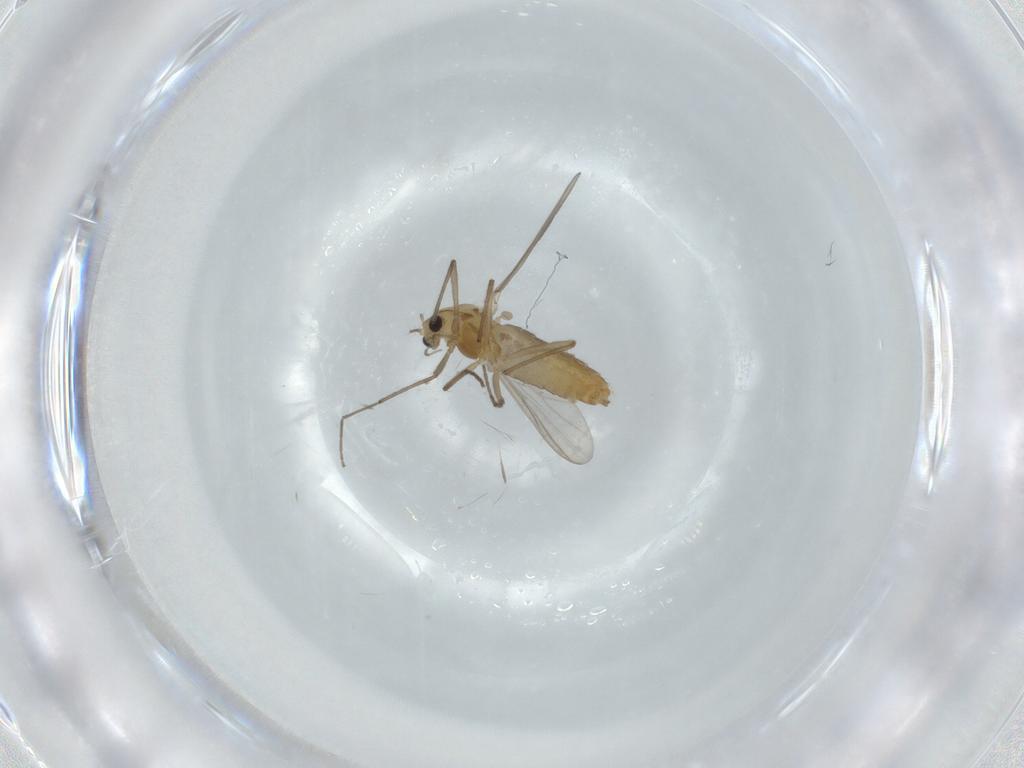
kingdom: Animalia
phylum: Arthropoda
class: Insecta
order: Diptera
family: Chironomidae
